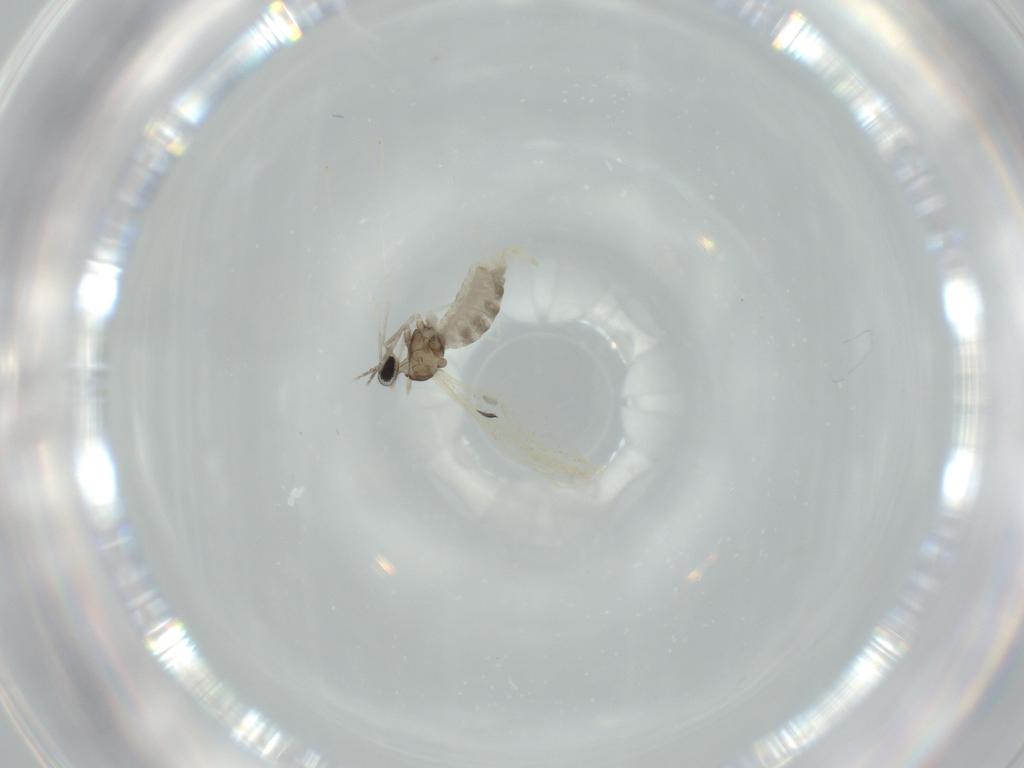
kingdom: Animalia
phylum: Arthropoda
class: Insecta
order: Diptera
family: Cecidomyiidae
